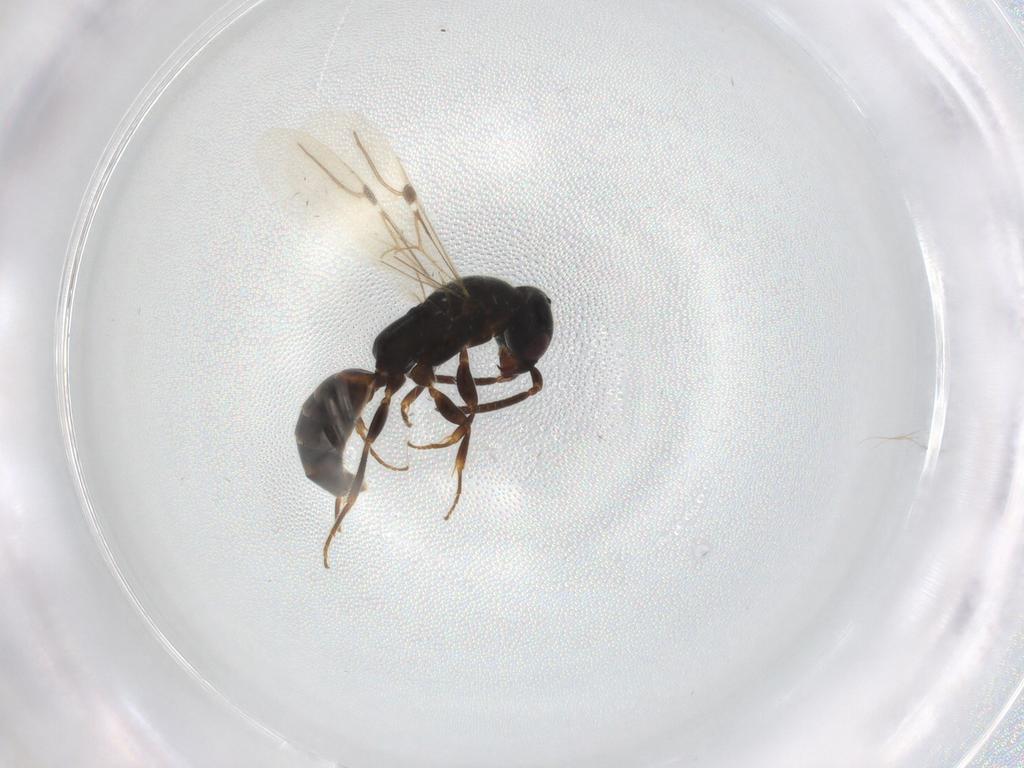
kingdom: Animalia
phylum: Arthropoda
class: Insecta
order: Hymenoptera
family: Bethylidae
